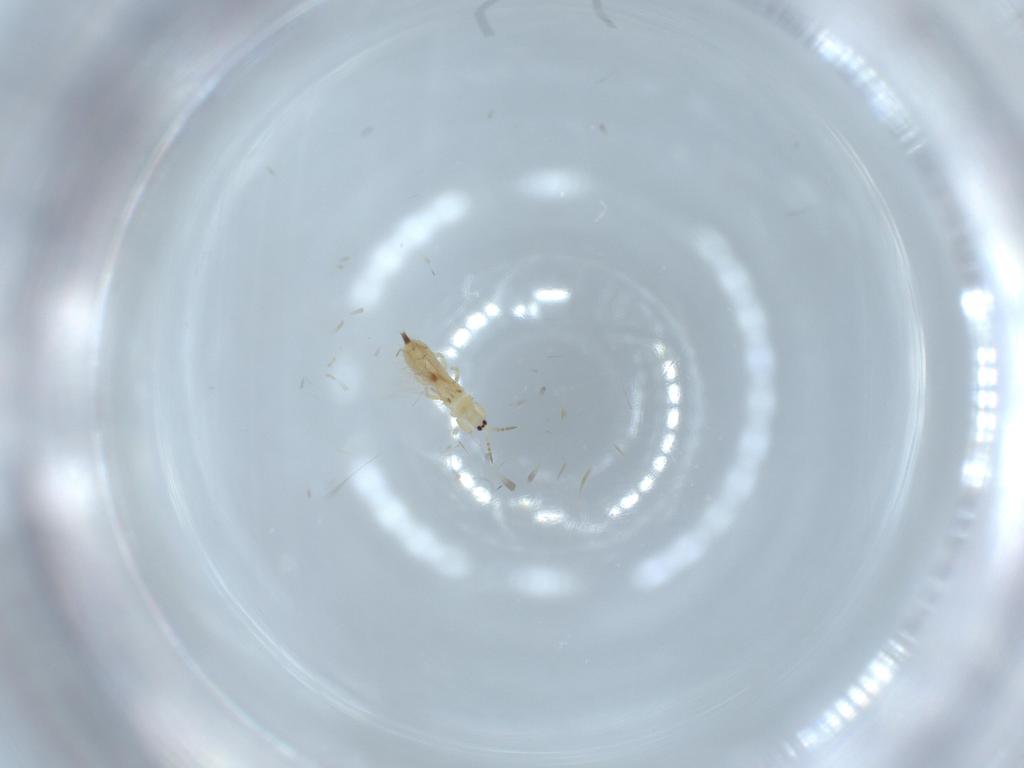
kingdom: Animalia
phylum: Arthropoda
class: Insecta
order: Thysanoptera
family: Phlaeothripidae
